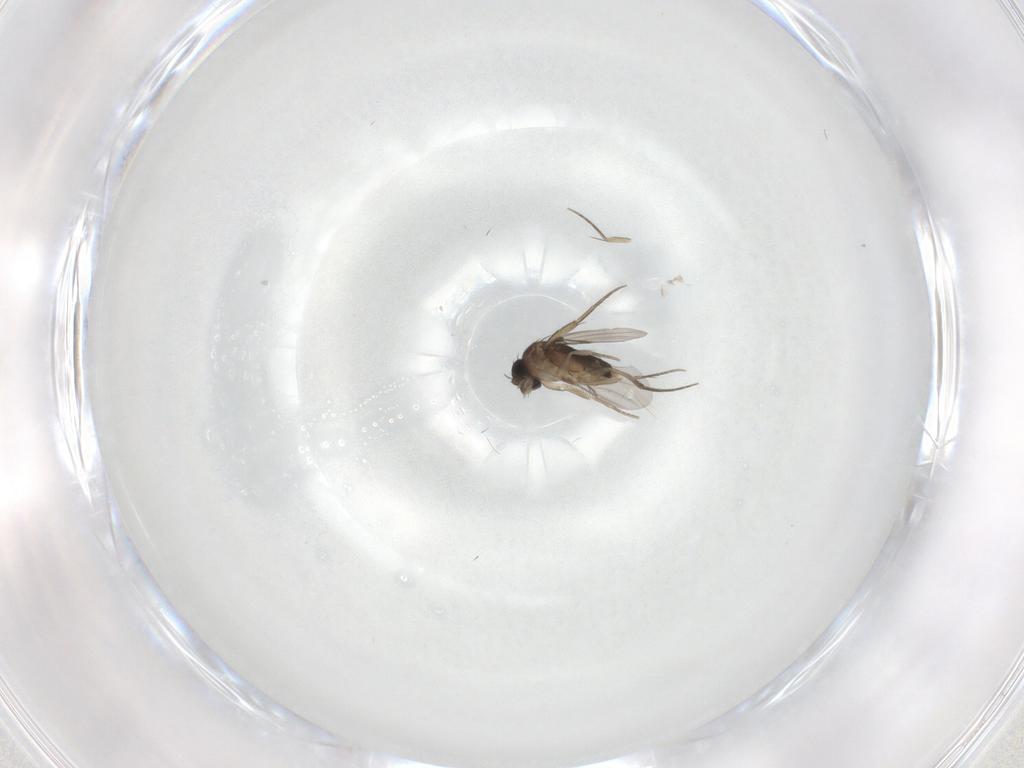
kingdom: Animalia
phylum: Arthropoda
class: Insecta
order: Diptera
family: Phoridae
